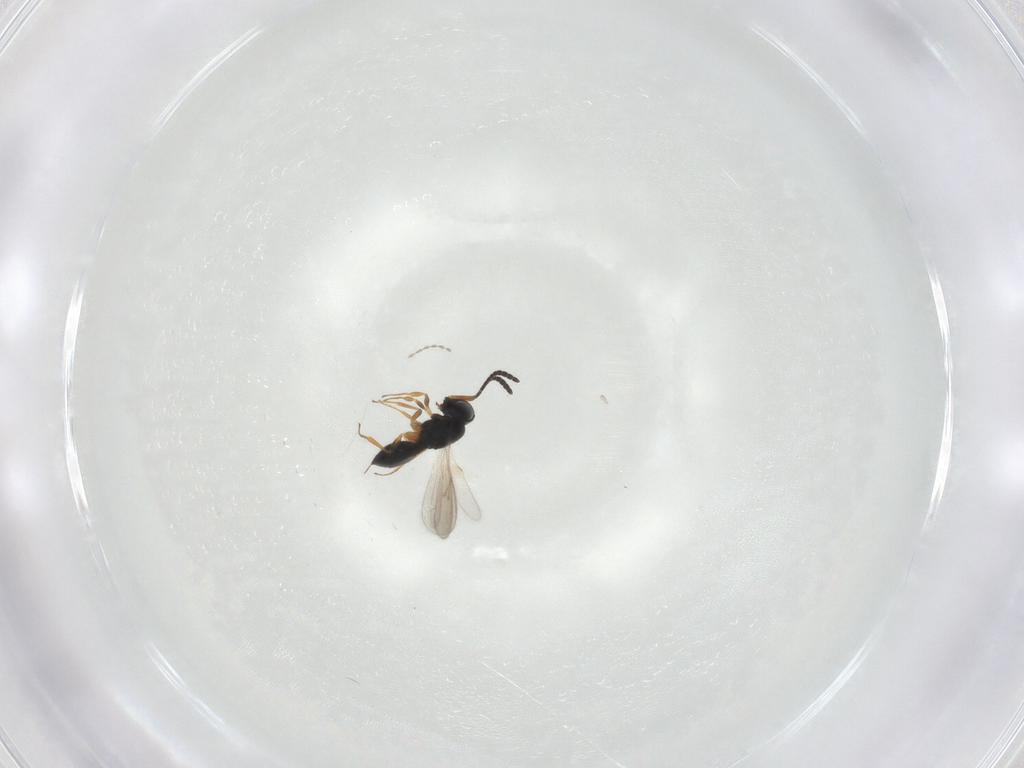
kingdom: Animalia
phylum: Arthropoda
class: Insecta
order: Hymenoptera
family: Scelionidae
